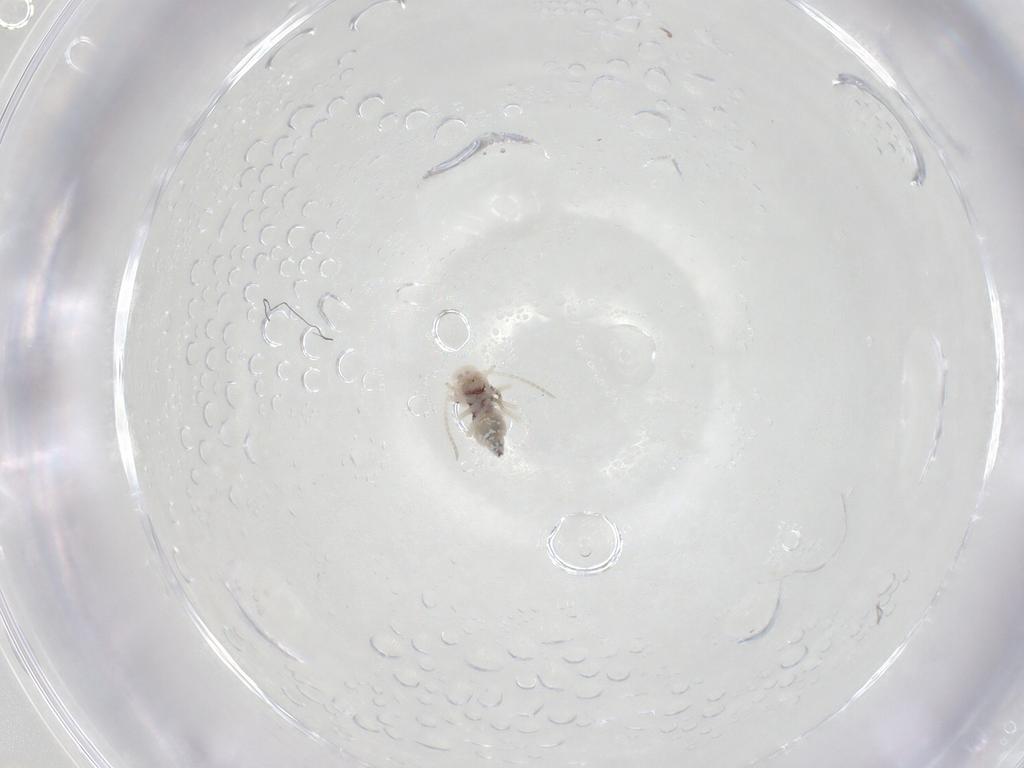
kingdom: Animalia
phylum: Arthropoda
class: Insecta
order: Psocodea
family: Amphipsocidae
